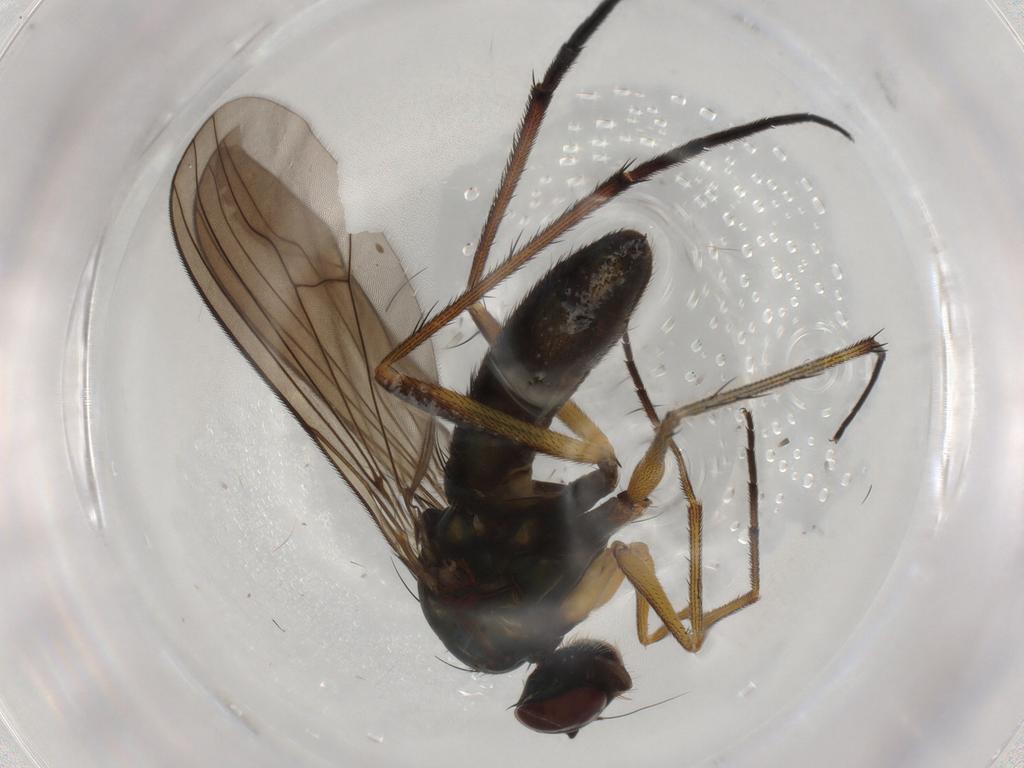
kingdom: Animalia
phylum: Arthropoda
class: Insecta
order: Diptera
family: Dolichopodidae
